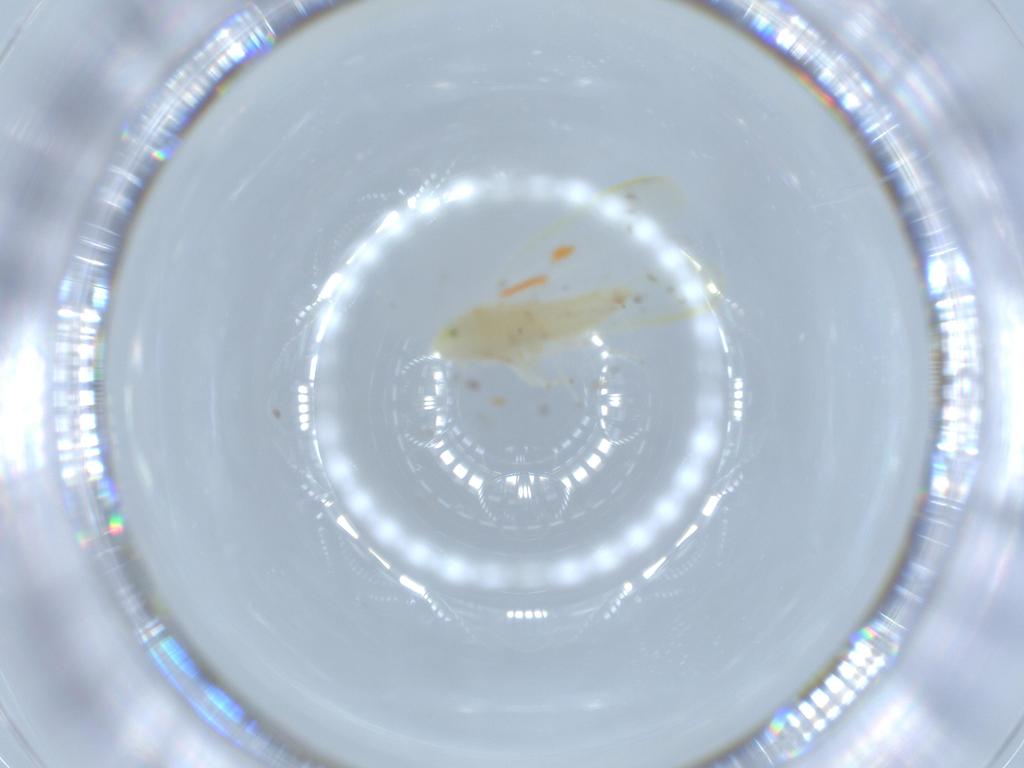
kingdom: Animalia
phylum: Arthropoda
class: Insecta
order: Hemiptera
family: Cicadellidae
